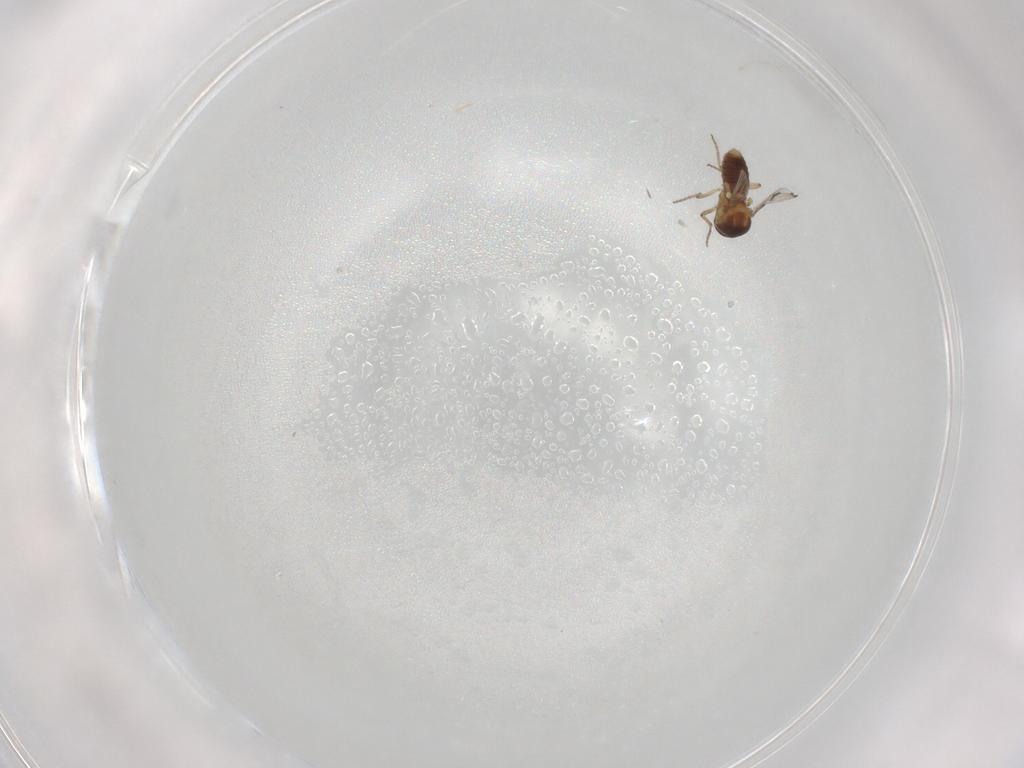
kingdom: Animalia
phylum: Arthropoda
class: Insecta
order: Diptera
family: Ceratopogonidae
